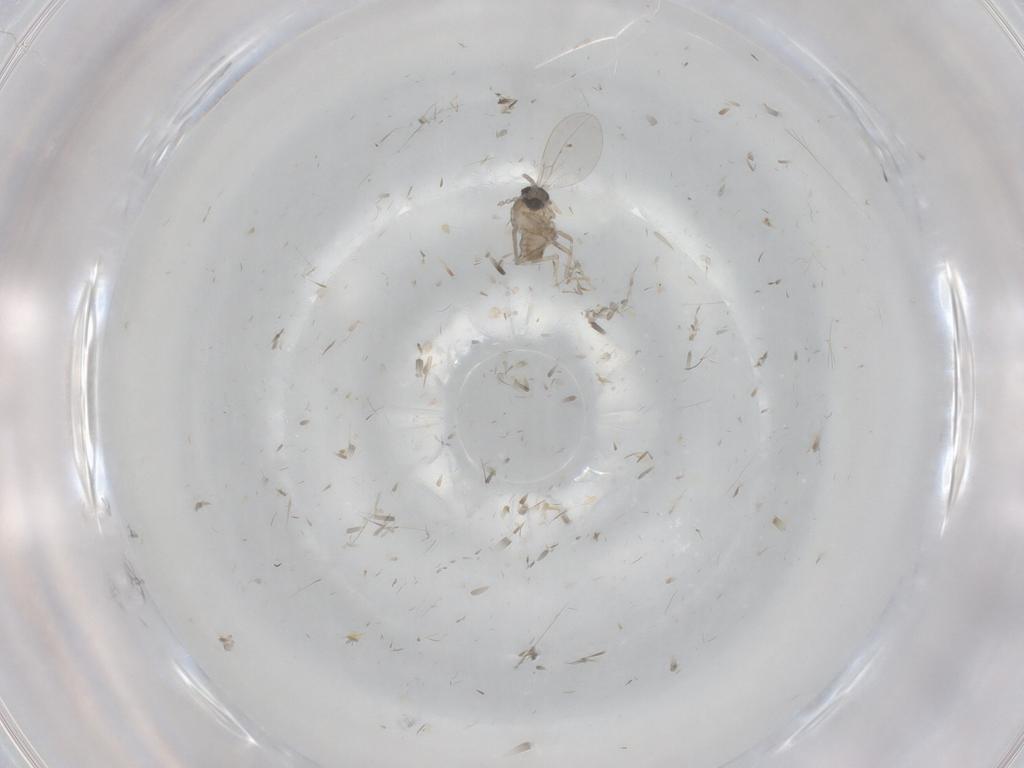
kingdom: Animalia
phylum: Arthropoda
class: Insecta
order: Diptera
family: Cecidomyiidae
